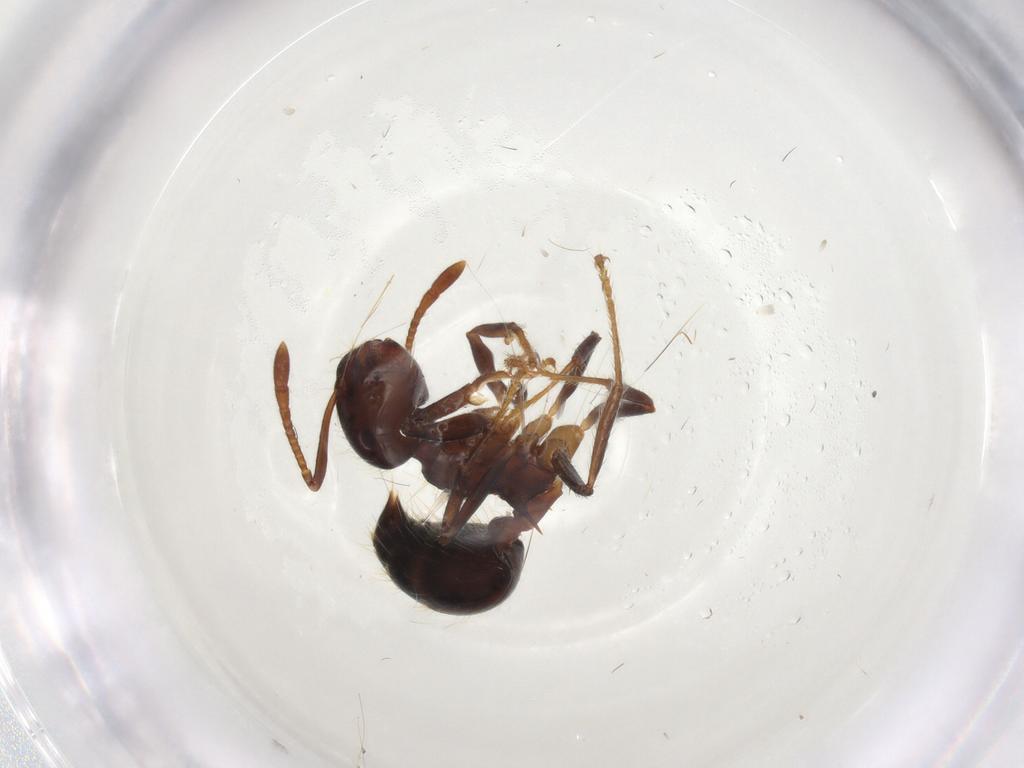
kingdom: Animalia
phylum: Arthropoda
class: Insecta
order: Hymenoptera
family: Formicidae
